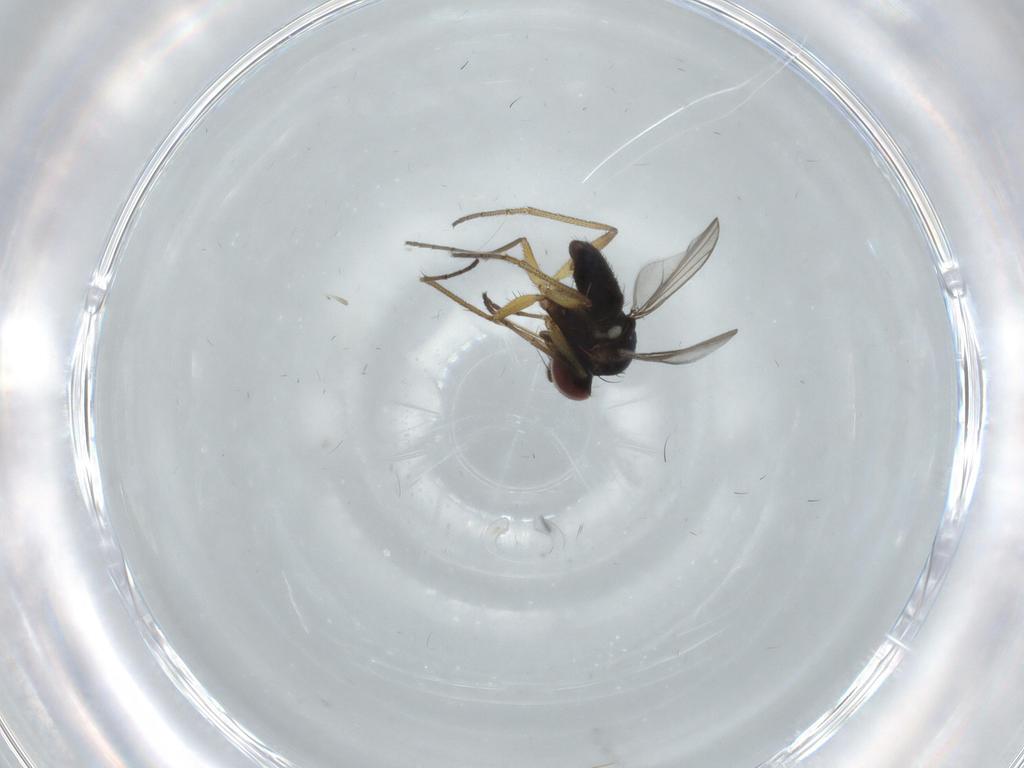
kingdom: Animalia
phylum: Arthropoda
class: Insecta
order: Diptera
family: Dolichopodidae
